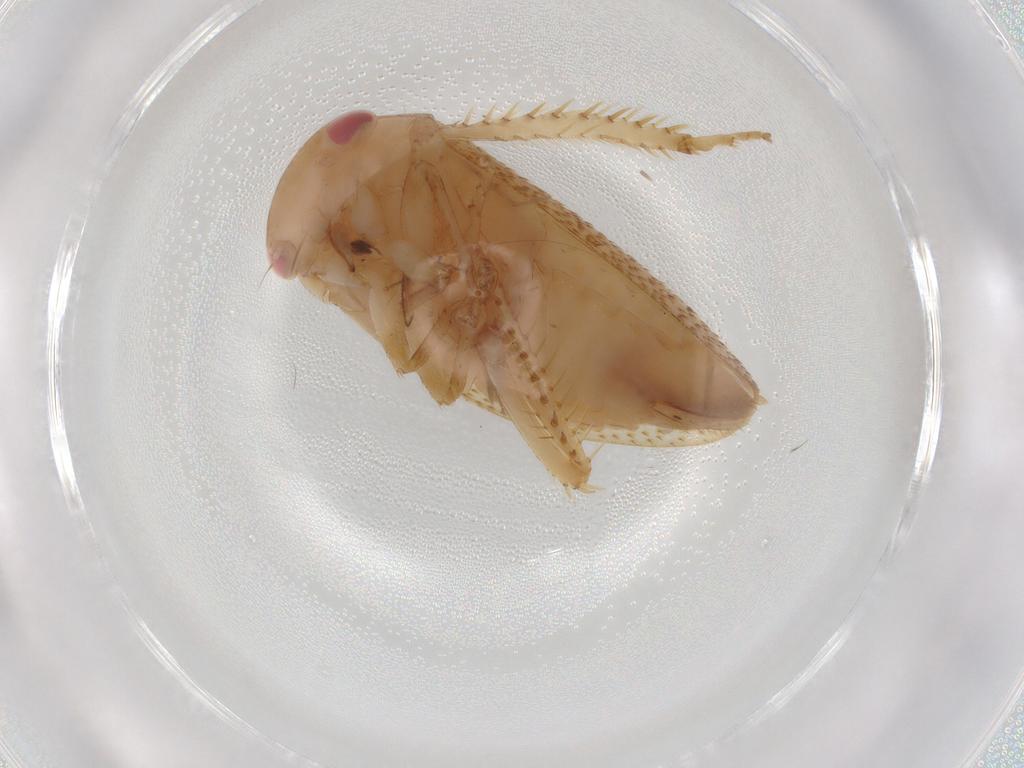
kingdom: Animalia
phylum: Arthropoda
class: Insecta
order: Hemiptera
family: Cicadellidae
